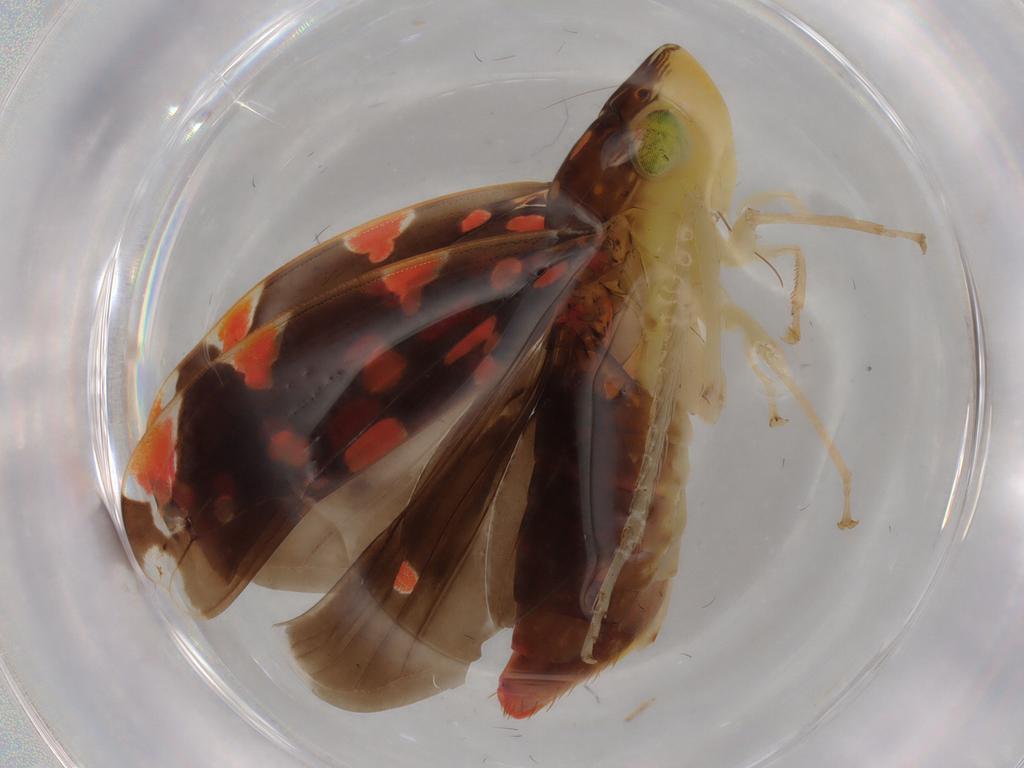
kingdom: Animalia
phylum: Arthropoda
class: Insecta
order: Hemiptera
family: Cicadellidae
